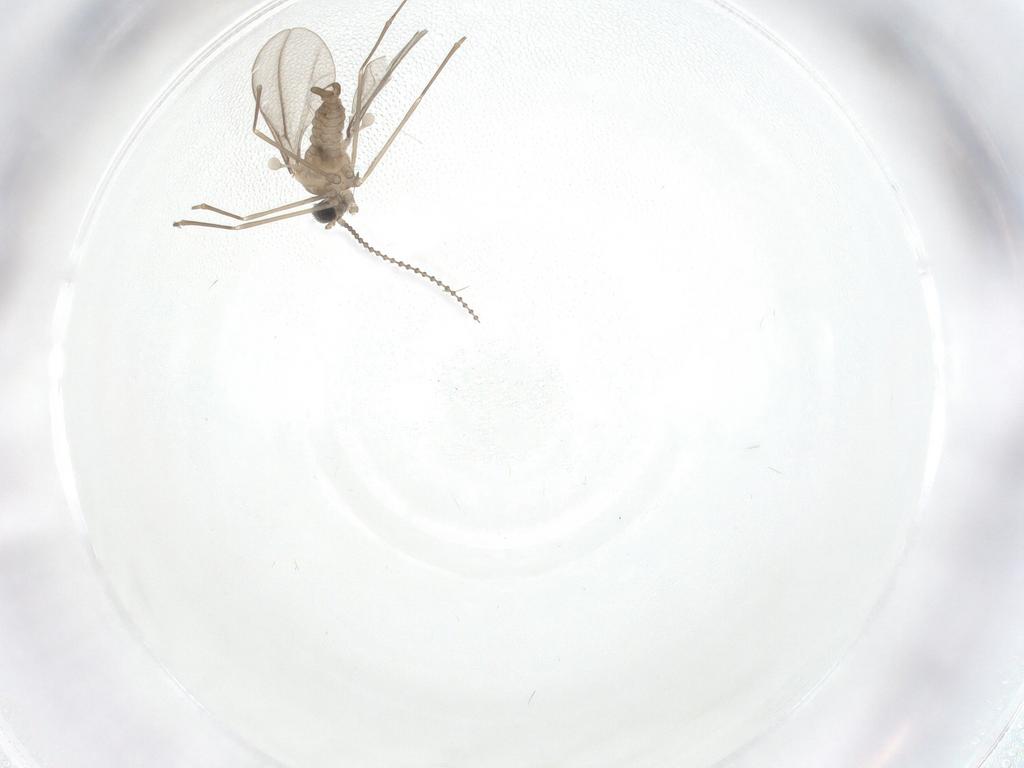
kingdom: Animalia
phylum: Arthropoda
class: Insecta
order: Diptera
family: Cecidomyiidae
